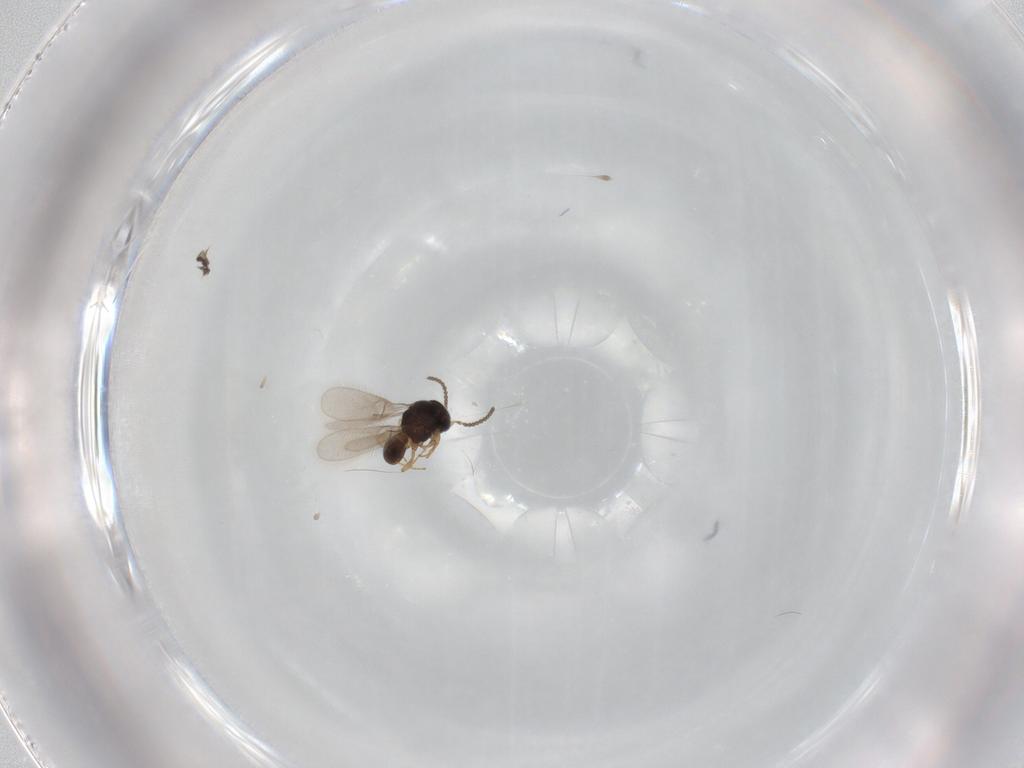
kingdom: Animalia
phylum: Arthropoda
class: Insecta
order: Hymenoptera
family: Scelionidae
